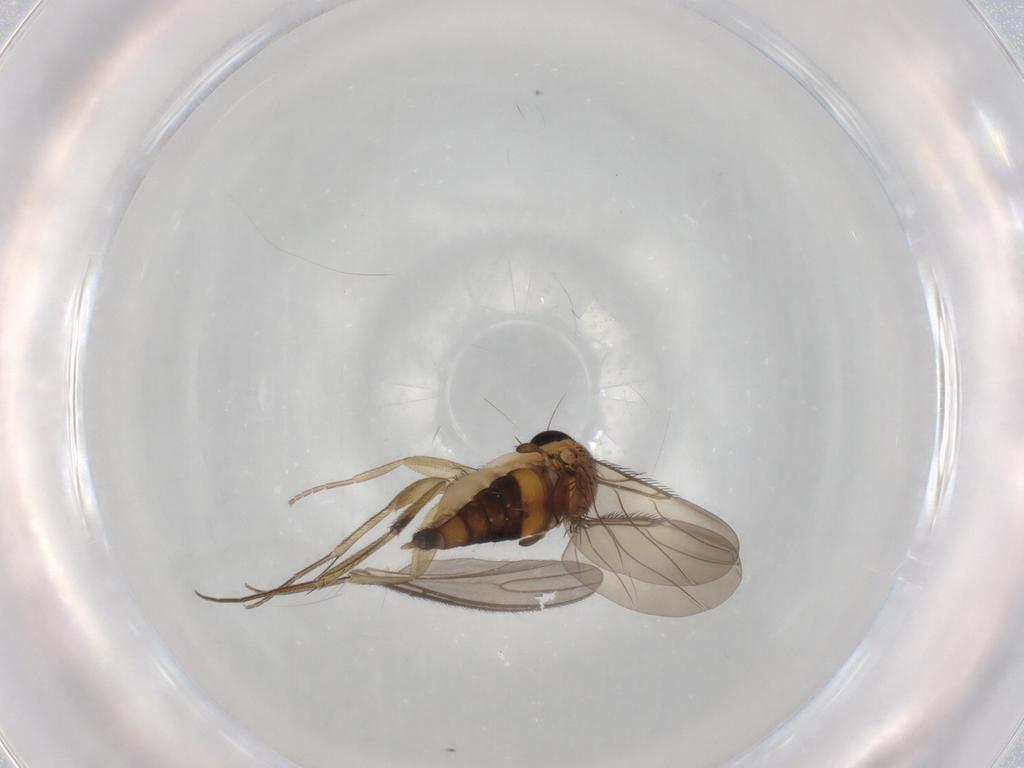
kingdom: Animalia
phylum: Arthropoda
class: Insecta
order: Diptera
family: Phoridae
